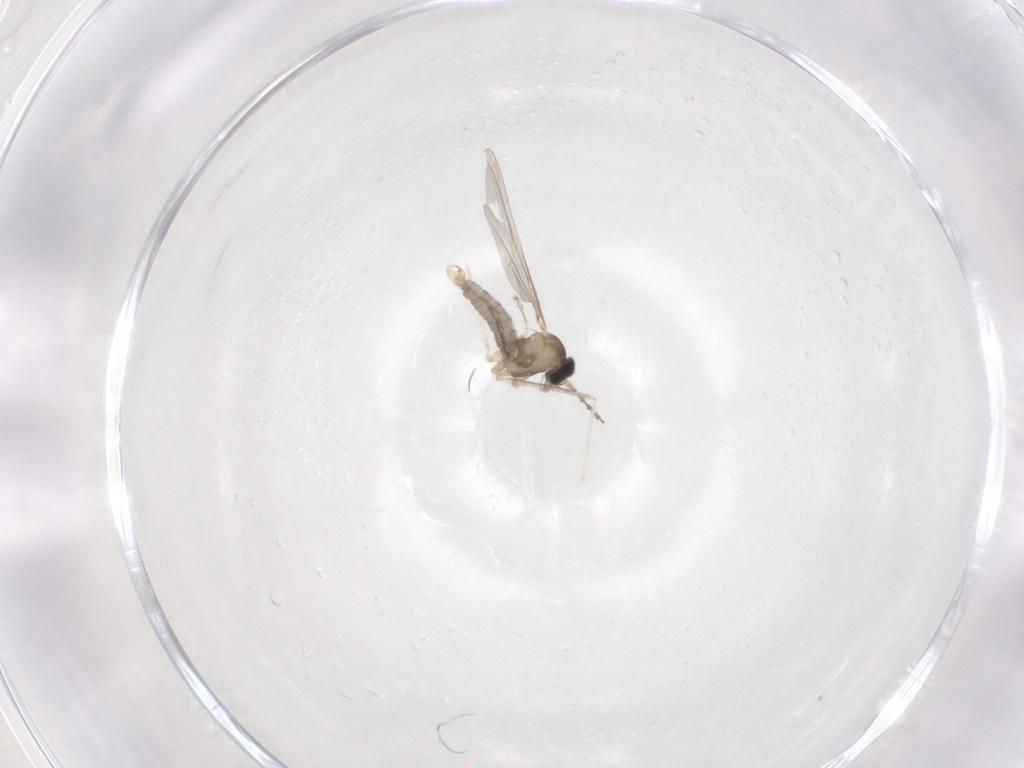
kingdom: Animalia
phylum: Arthropoda
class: Insecta
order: Diptera
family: Cecidomyiidae
